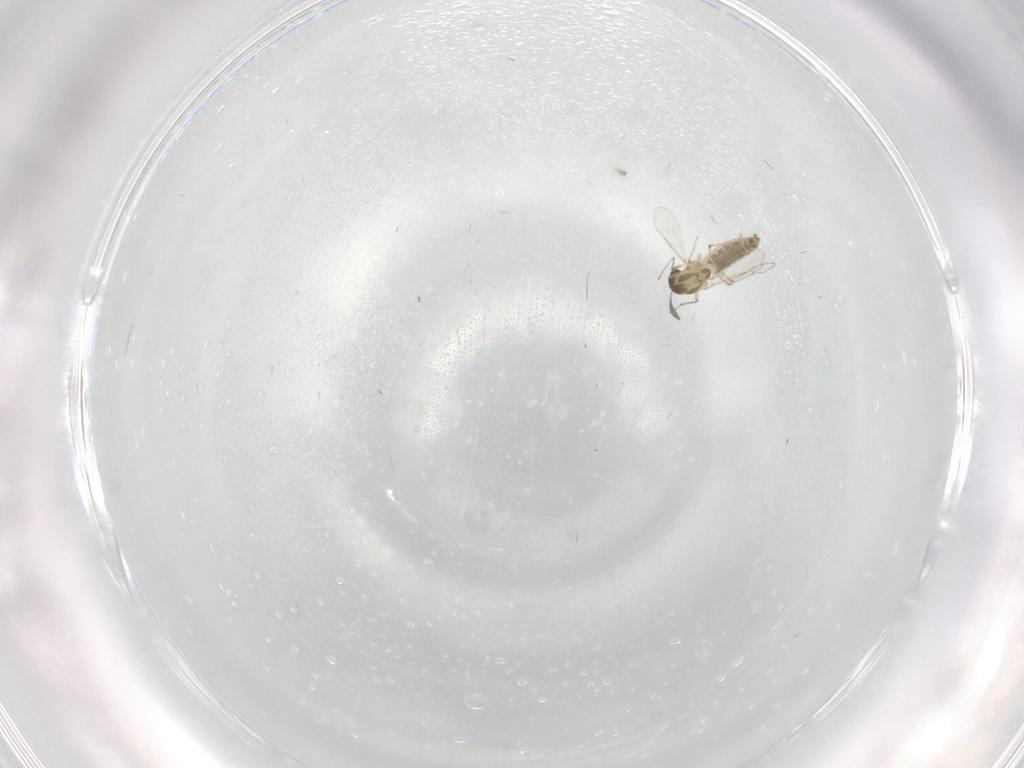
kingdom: Animalia
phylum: Arthropoda
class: Insecta
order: Diptera
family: Chironomidae
